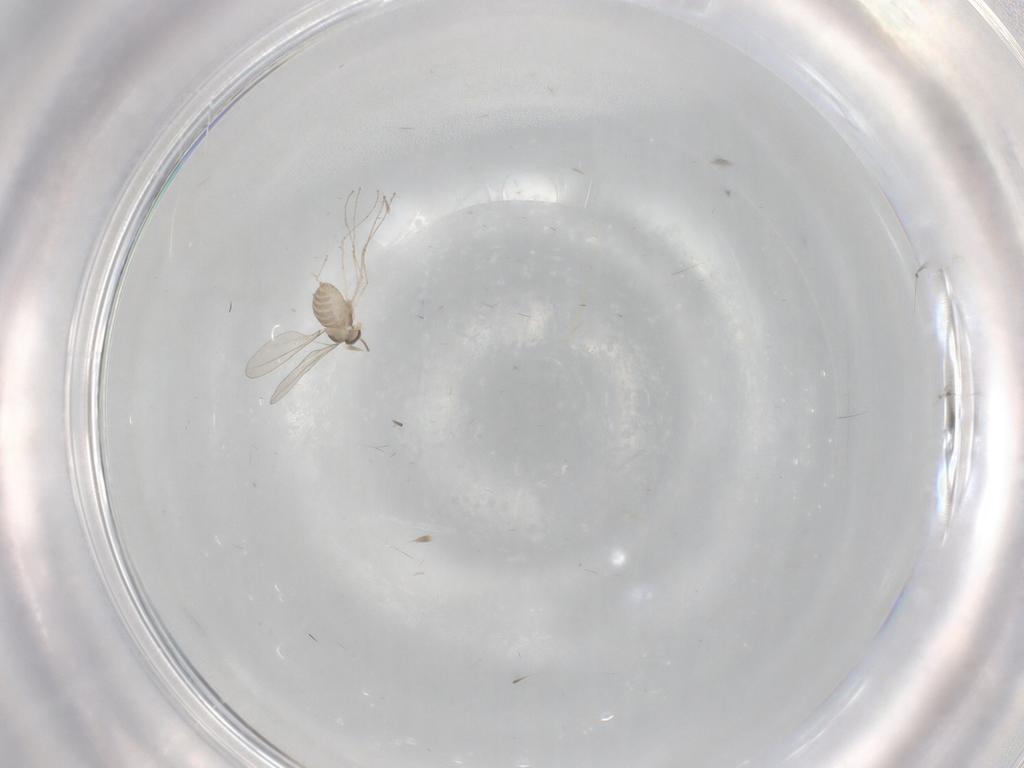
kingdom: Animalia
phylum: Arthropoda
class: Insecta
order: Diptera
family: Cecidomyiidae
